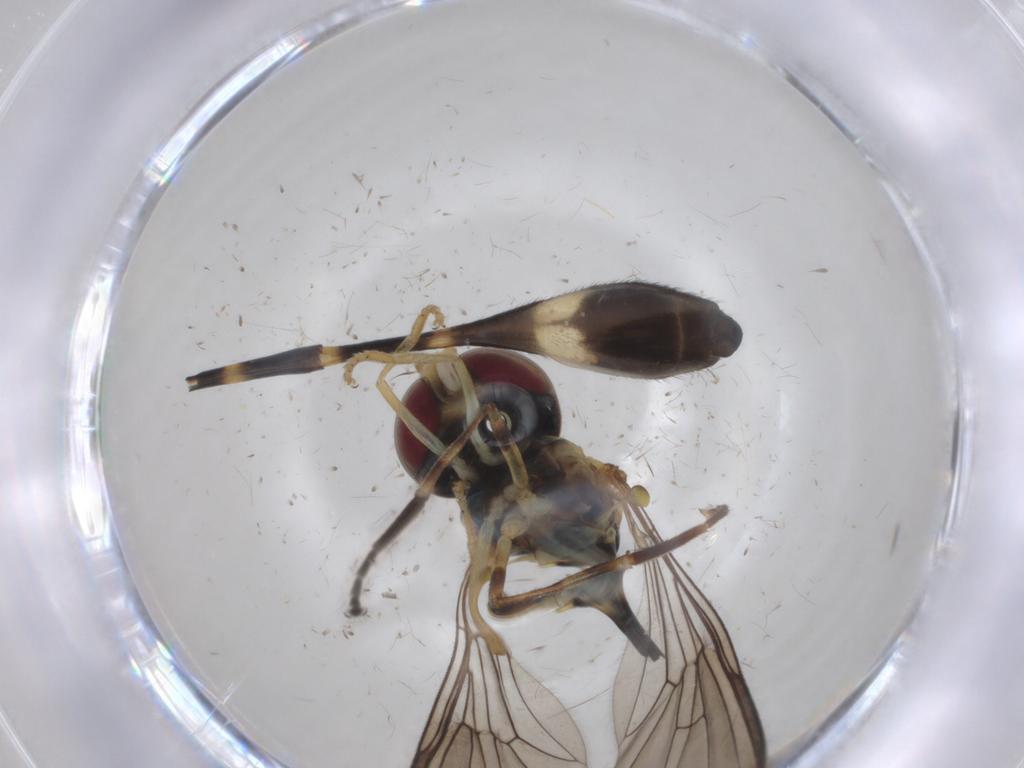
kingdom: Animalia
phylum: Arthropoda
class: Insecta
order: Diptera
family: Syrphidae
